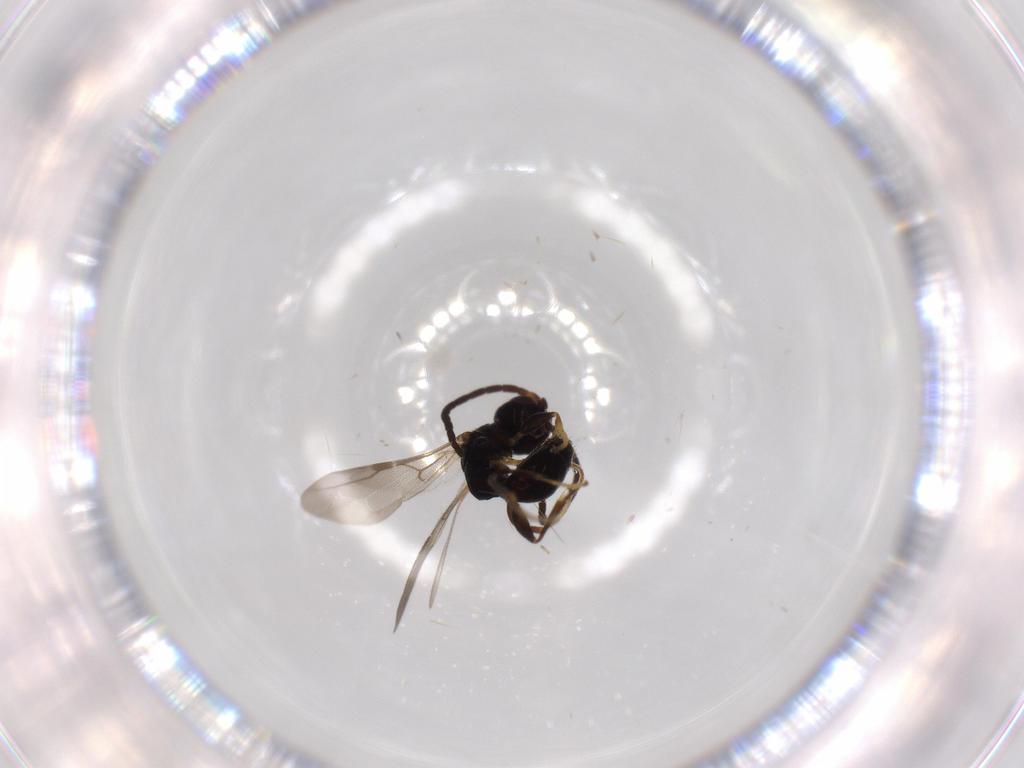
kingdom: Animalia
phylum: Arthropoda
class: Insecta
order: Hymenoptera
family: Bethylidae
